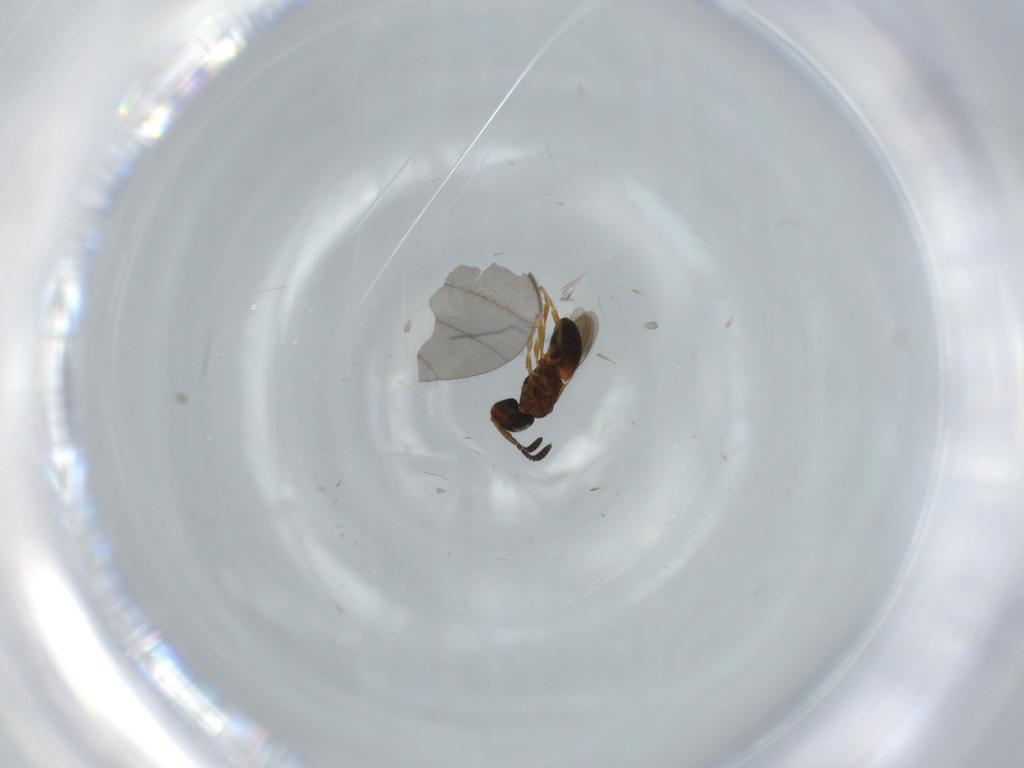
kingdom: Animalia
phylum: Arthropoda
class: Insecta
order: Hymenoptera
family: Scelionidae
